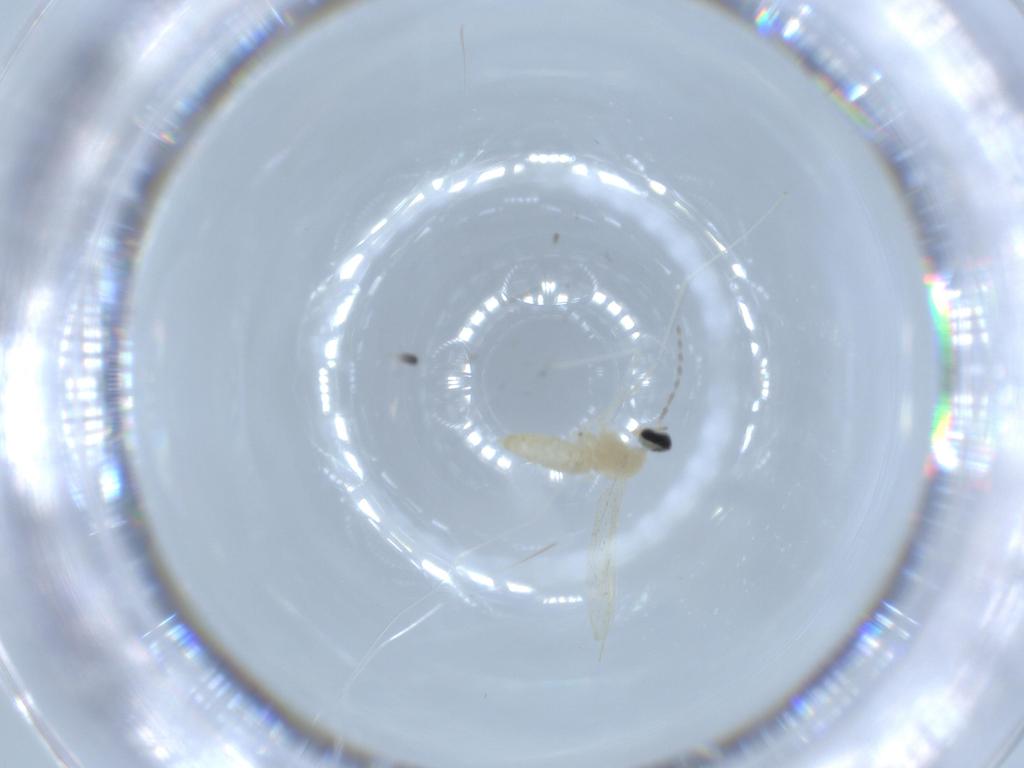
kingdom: Animalia
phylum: Arthropoda
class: Insecta
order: Diptera
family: Cecidomyiidae
